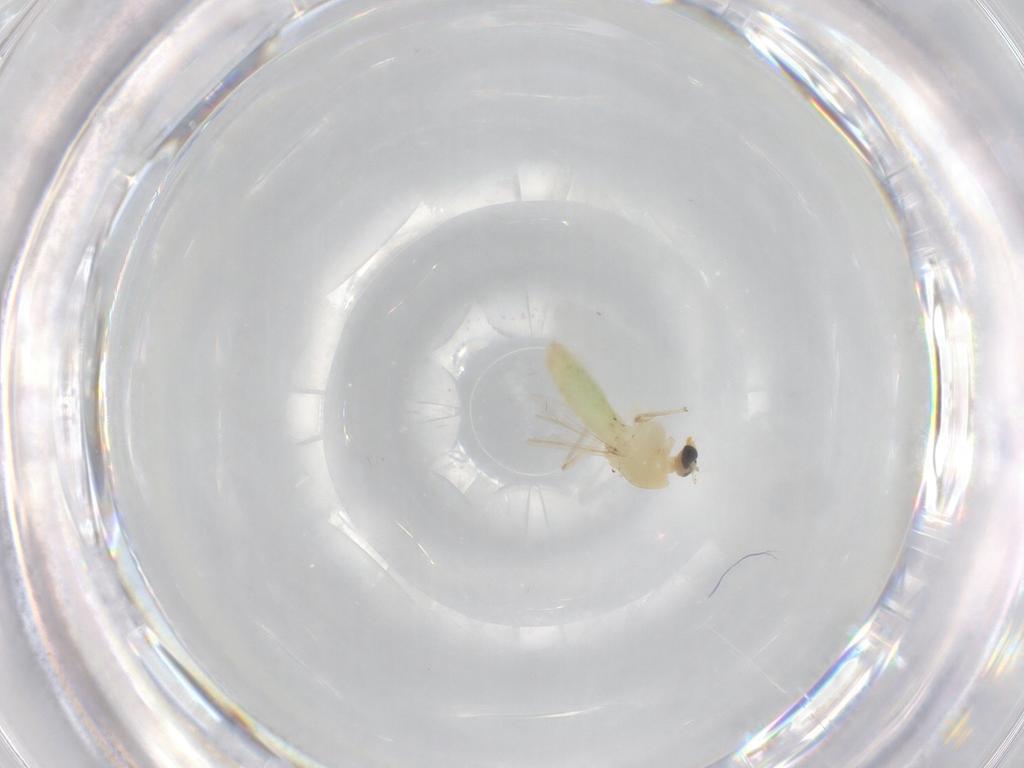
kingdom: Animalia
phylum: Arthropoda
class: Insecta
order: Diptera
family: Chironomidae
